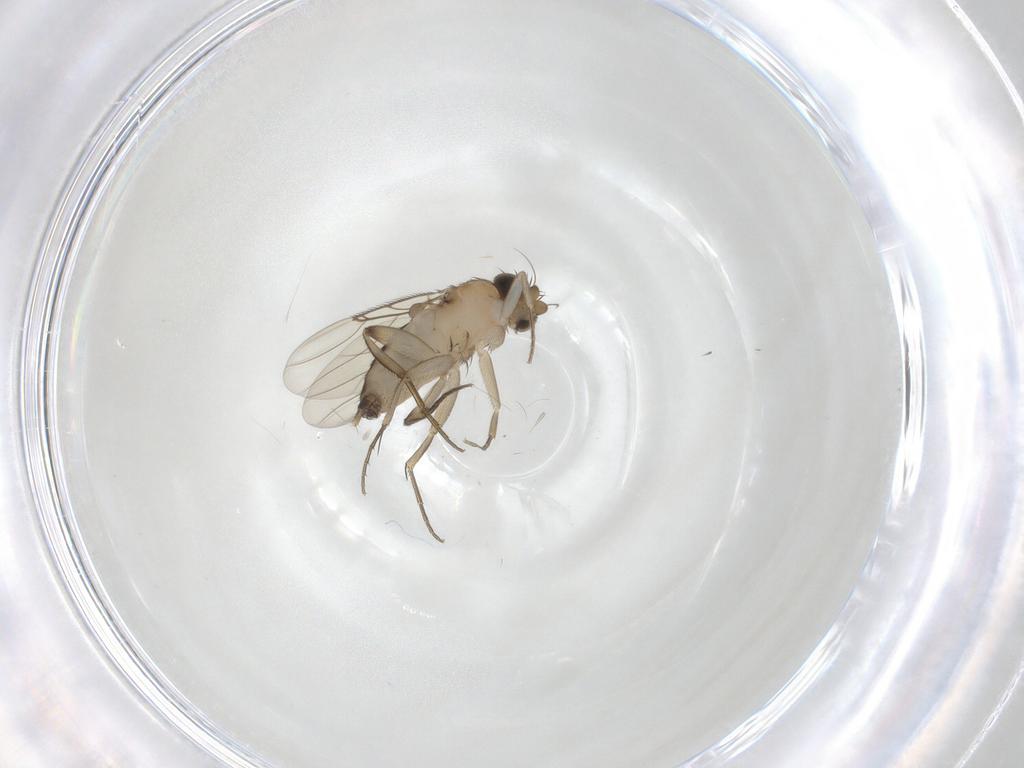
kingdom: Animalia
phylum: Arthropoda
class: Insecta
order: Diptera
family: Phoridae
